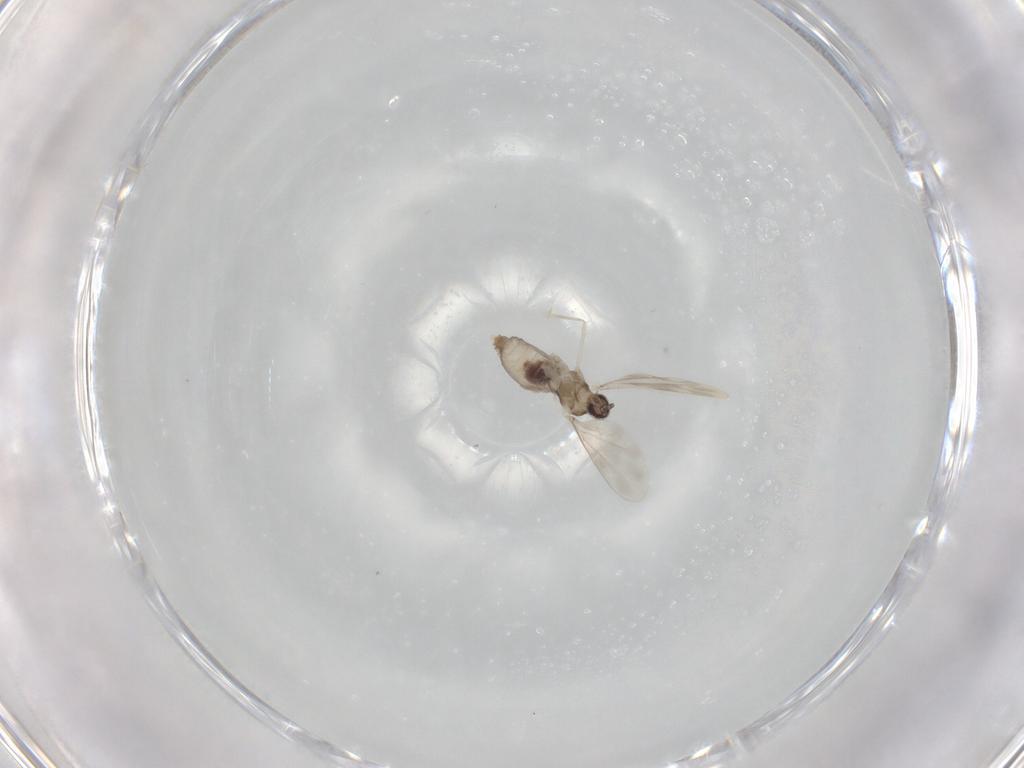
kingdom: Animalia
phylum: Arthropoda
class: Insecta
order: Diptera
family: Cecidomyiidae
